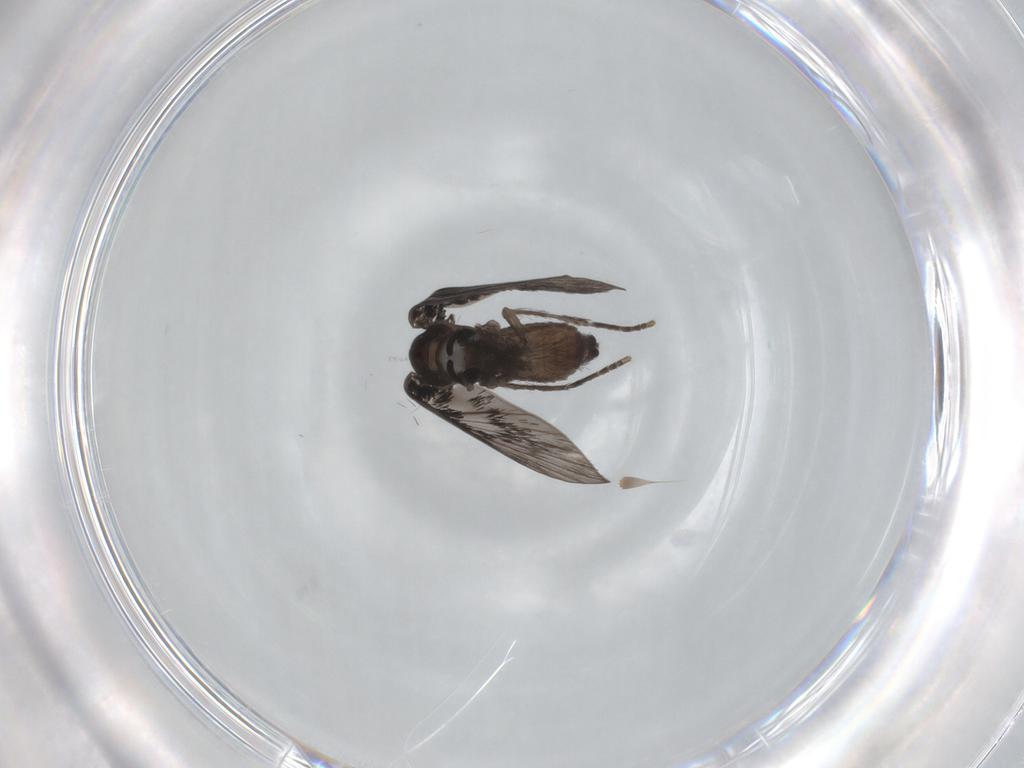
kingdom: Animalia
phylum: Arthropoda
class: Insecta
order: Diptera
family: Psychodidae
